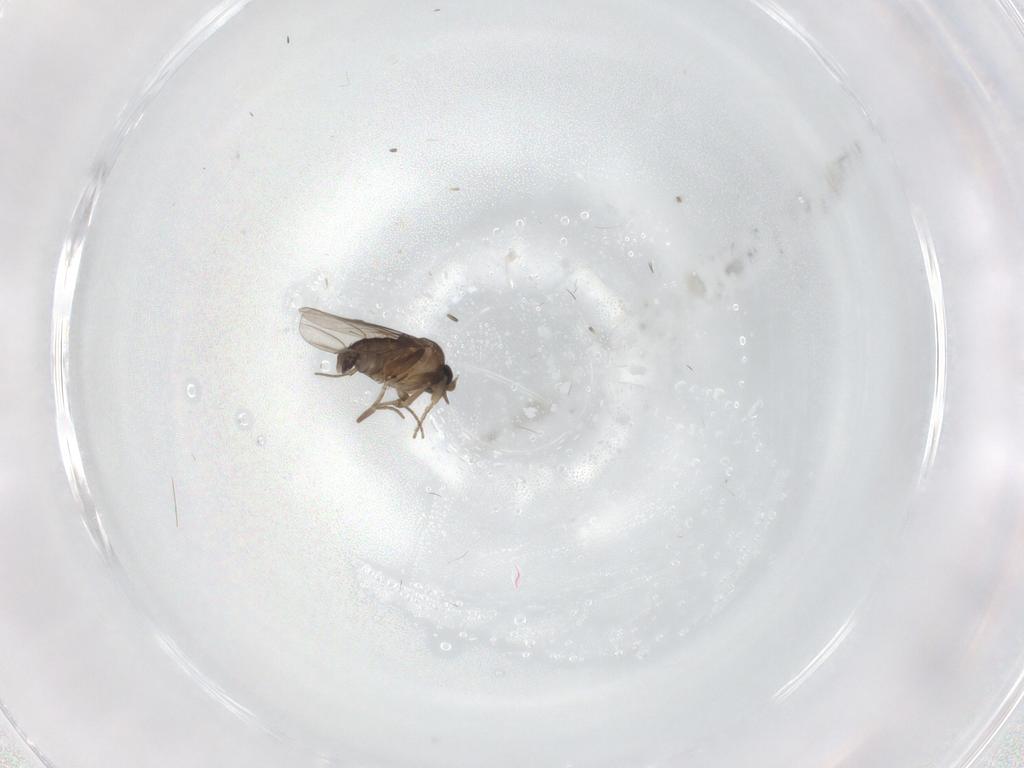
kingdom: Animalia
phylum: Arthropoda
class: Insecta
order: Diptera
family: Phoridae
